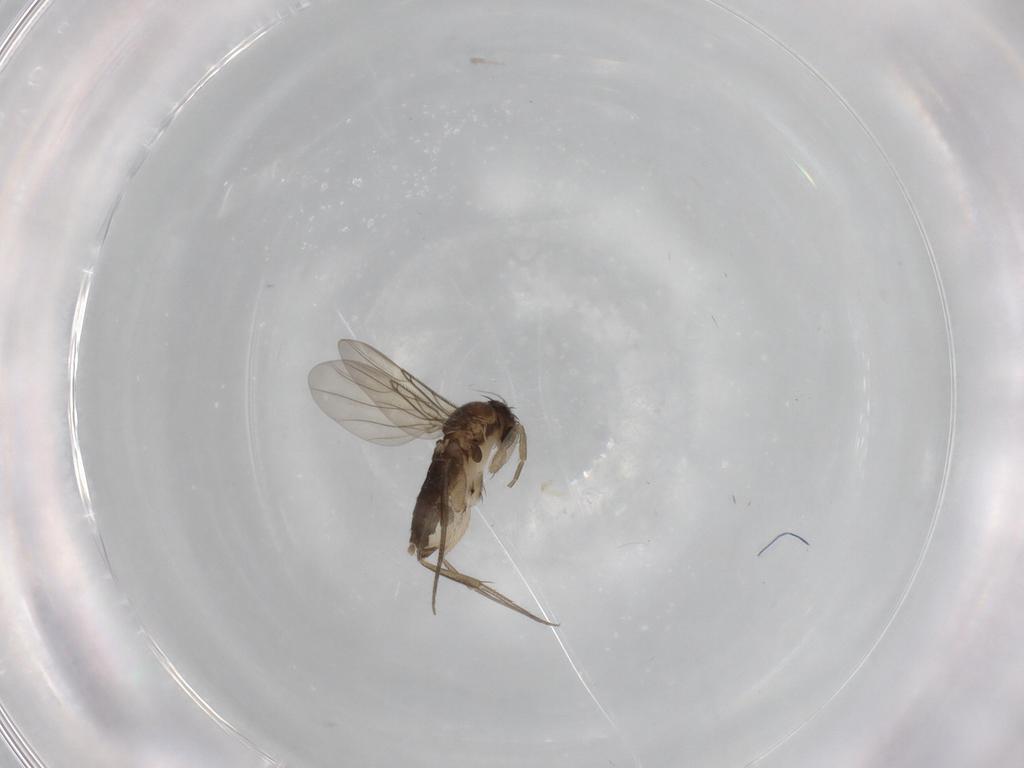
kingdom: Animalia
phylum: Arthropoda
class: Insecta
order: Diptera
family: Phoridae
